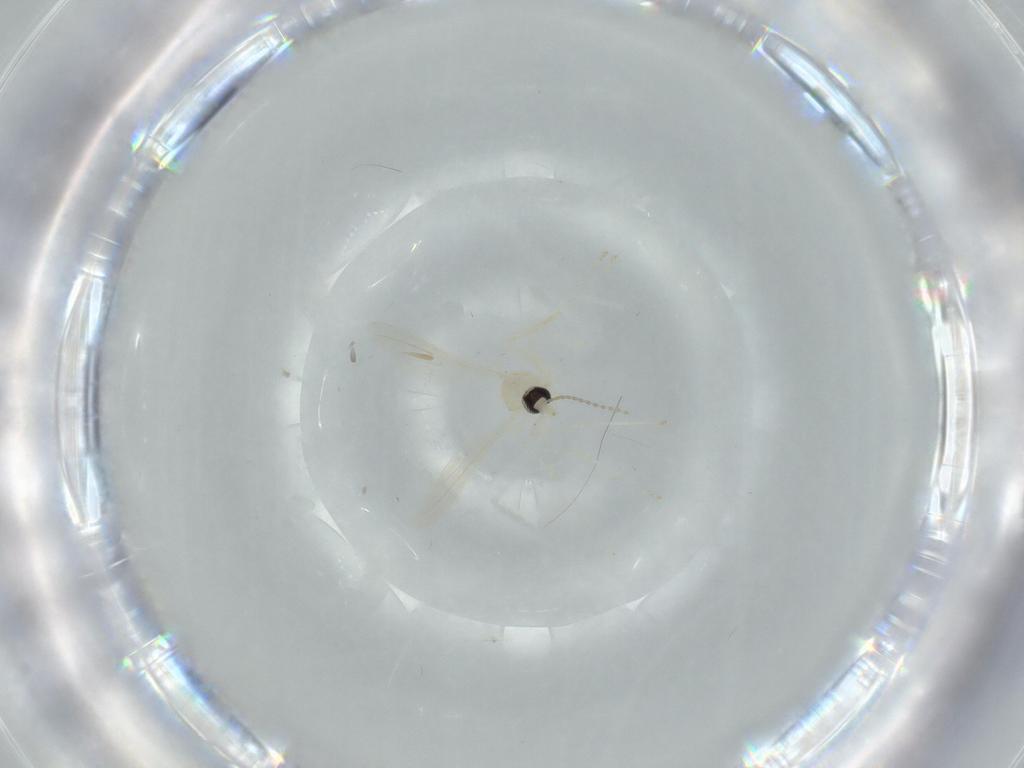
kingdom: Animalia
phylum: Arthropoda
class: Insecta
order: Diptera
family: Cecidomyiidae
